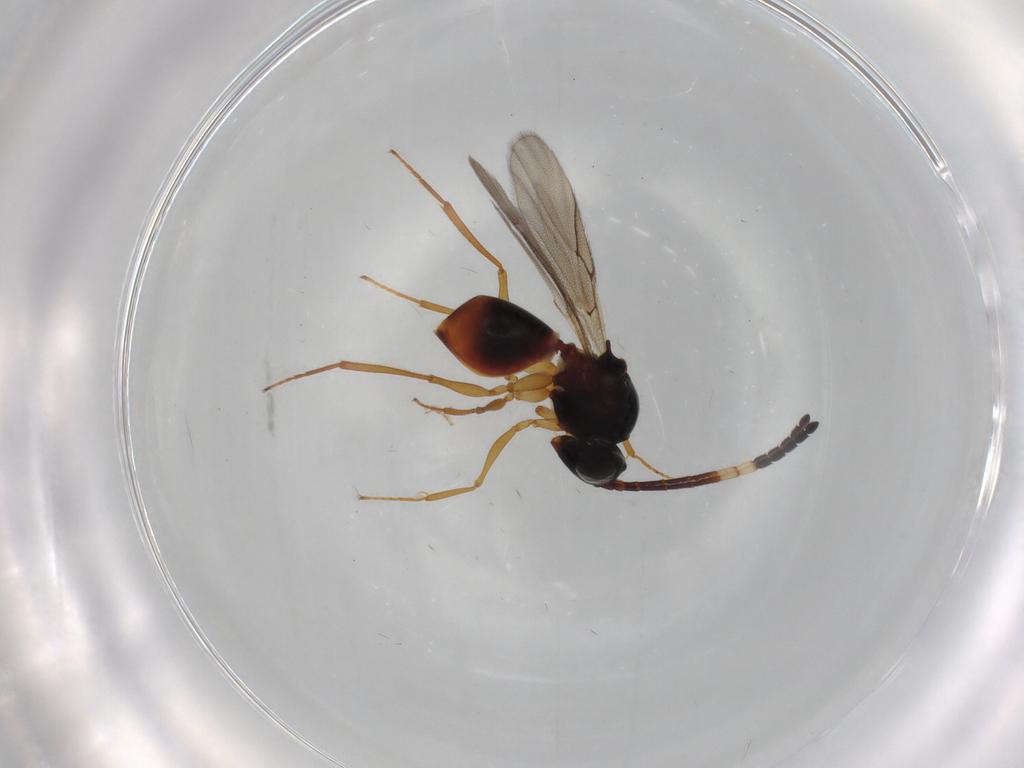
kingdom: Animalia
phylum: Arthropoda
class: Insecta
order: Hymenoptera
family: Figitidae
